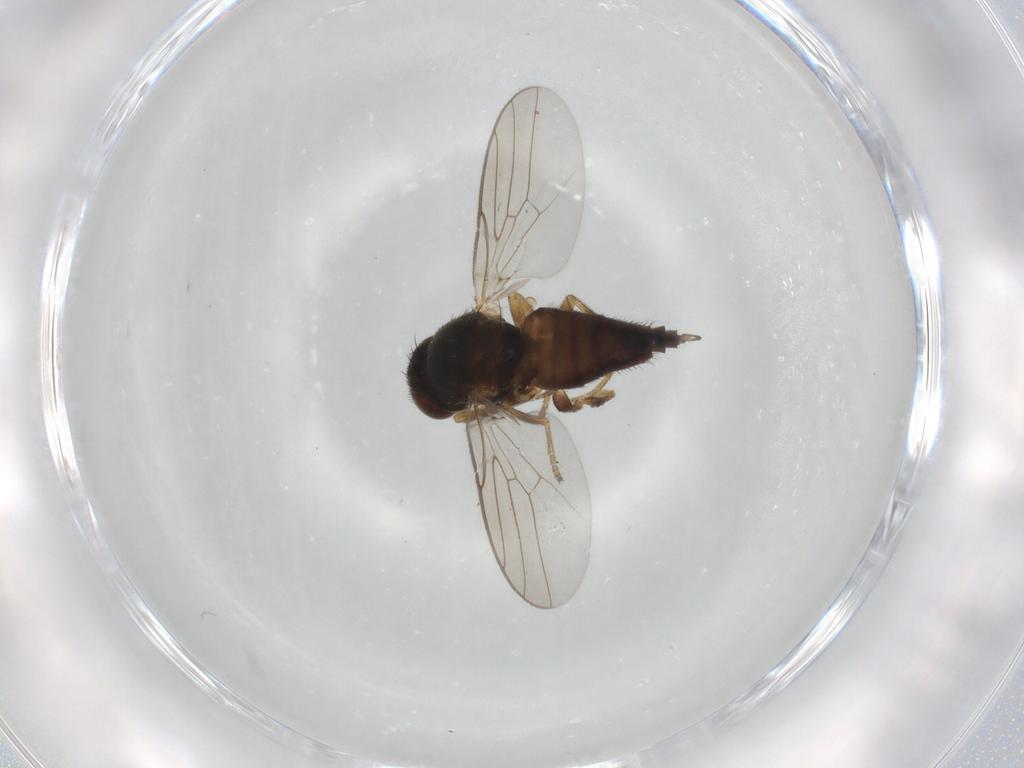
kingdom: Animalia
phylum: Arthropoda
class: Insecta
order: Diptera
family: Chloropidae
